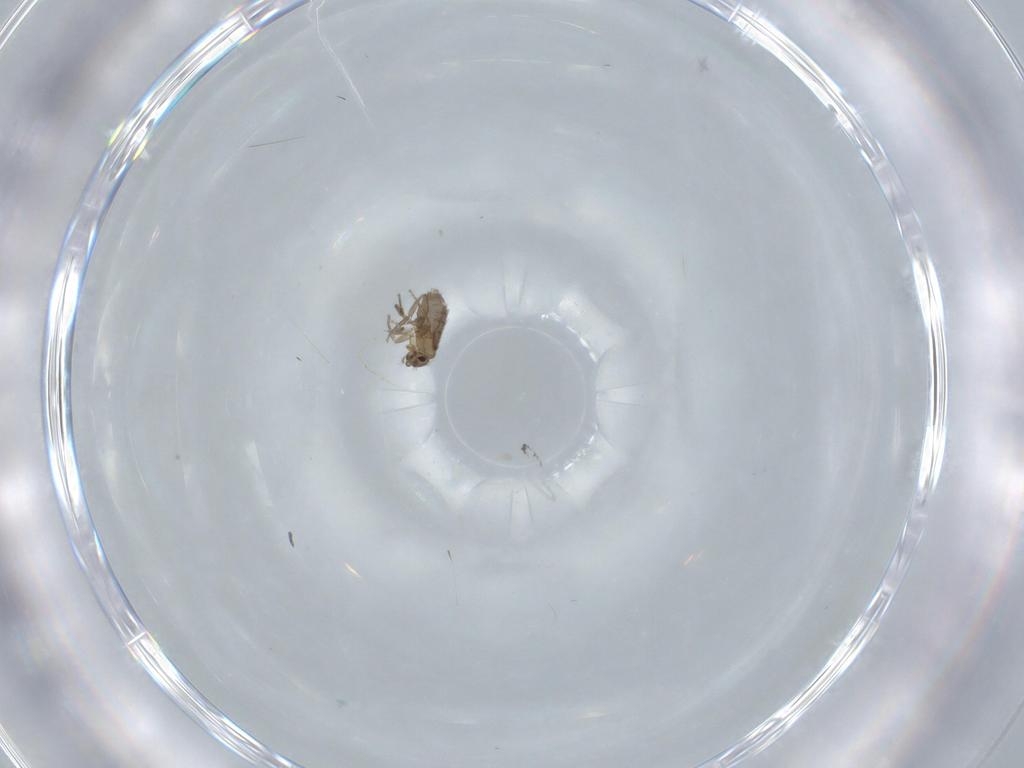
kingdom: Animalia
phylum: Arthropoda
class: Insecta
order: Diptera
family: Phoridae
